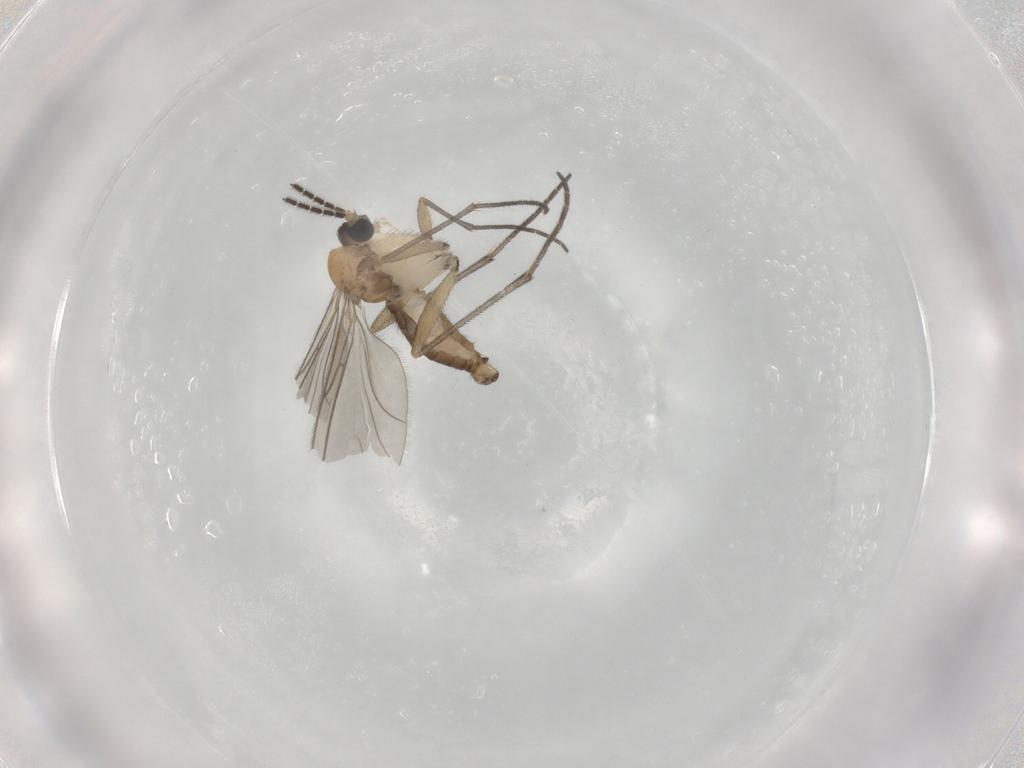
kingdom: Animalia
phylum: Arthropoda
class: Insecta
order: Diptera
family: Sciaridae
